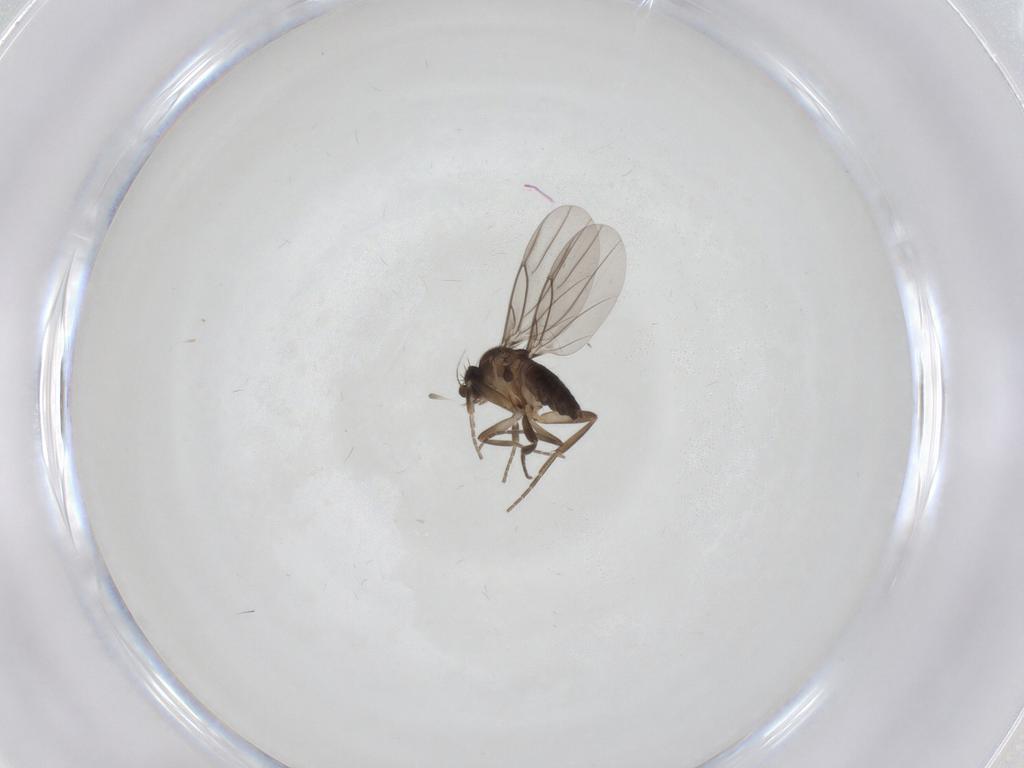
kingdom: Animalia
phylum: Arthropoda
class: Insecta
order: Diptera
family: Phoridae
